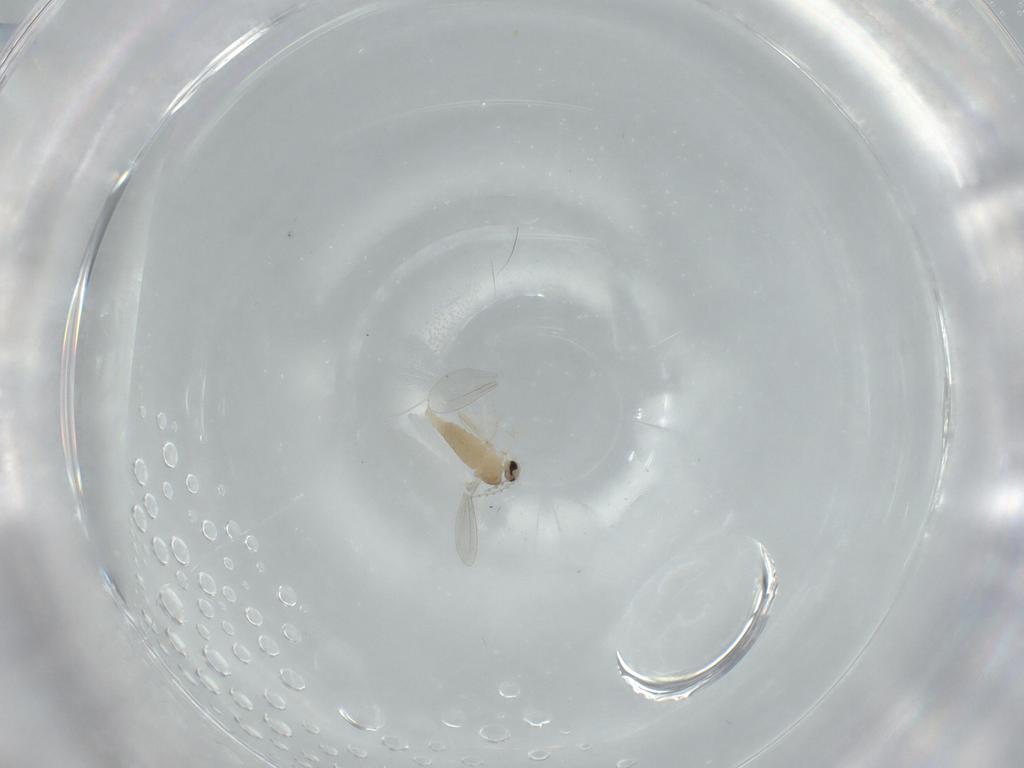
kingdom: Animalia
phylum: Arthropoda
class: Insecta
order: Diptera
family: Cecidomyiidae
